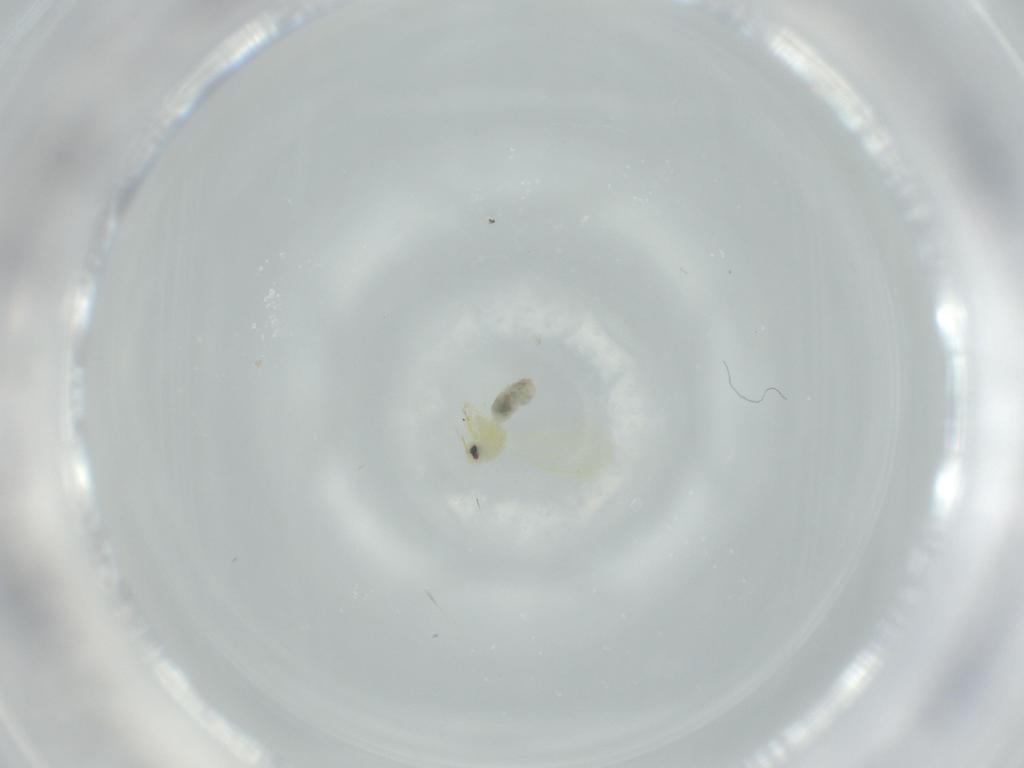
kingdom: Animalia
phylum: Arthropoda
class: Insecta
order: Hemiptera
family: Aleyrodidae
